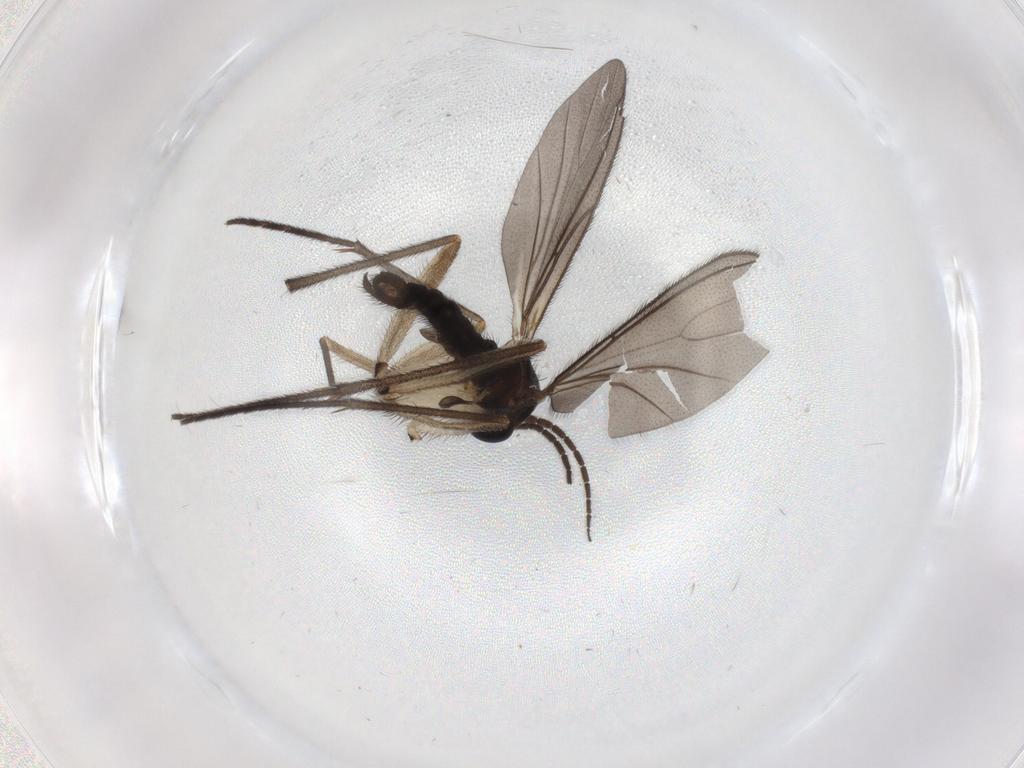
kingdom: Animalia
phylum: Arthropoda
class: Insecta
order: Diptera
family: Sciaridae
